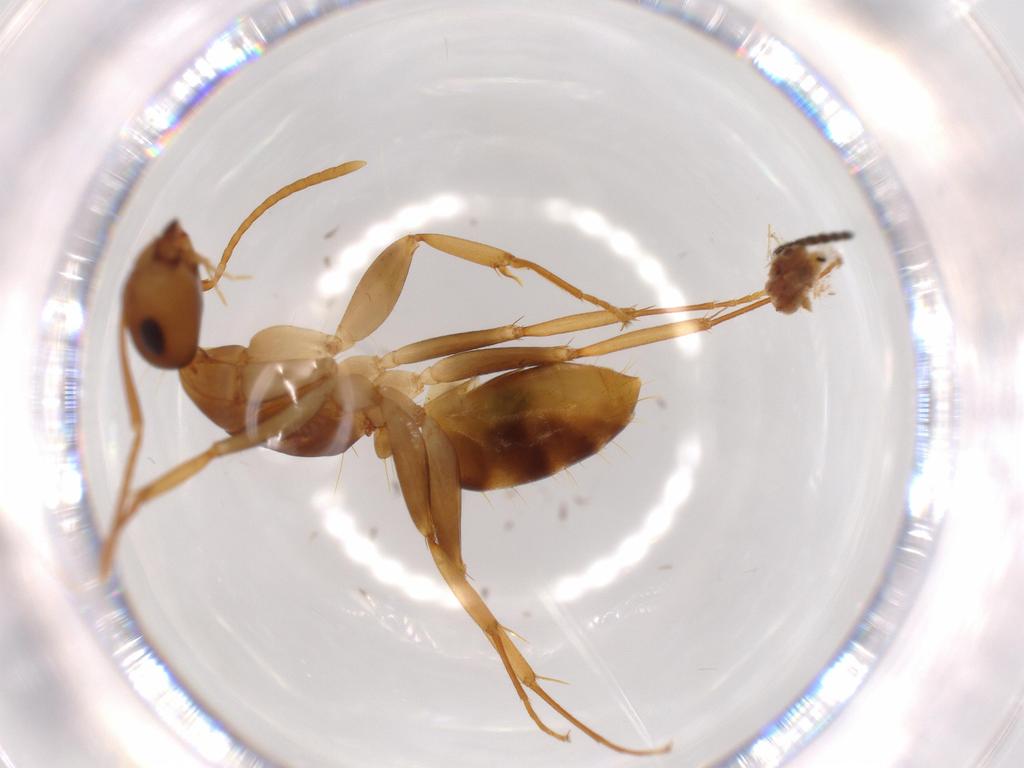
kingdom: Animalia
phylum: Arthropoda
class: Insecta
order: Hymenoptera
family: Formicidae
